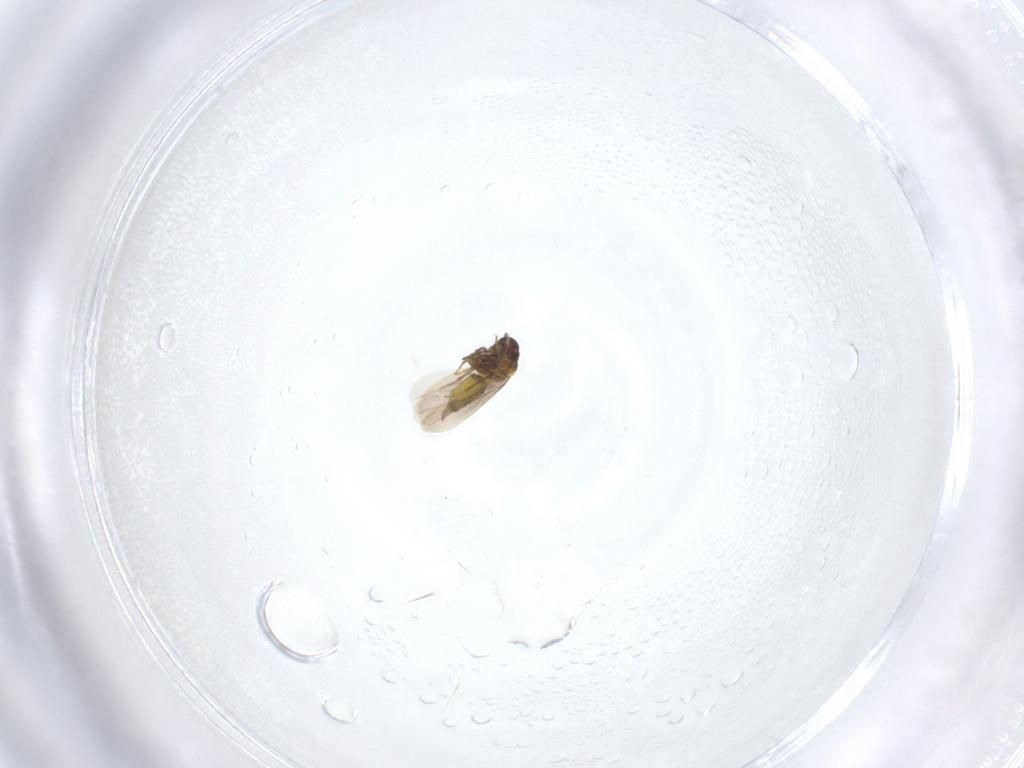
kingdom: Animalia
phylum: Arthropoda
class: Insecta
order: Hemiptera
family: Aleyrodidae
